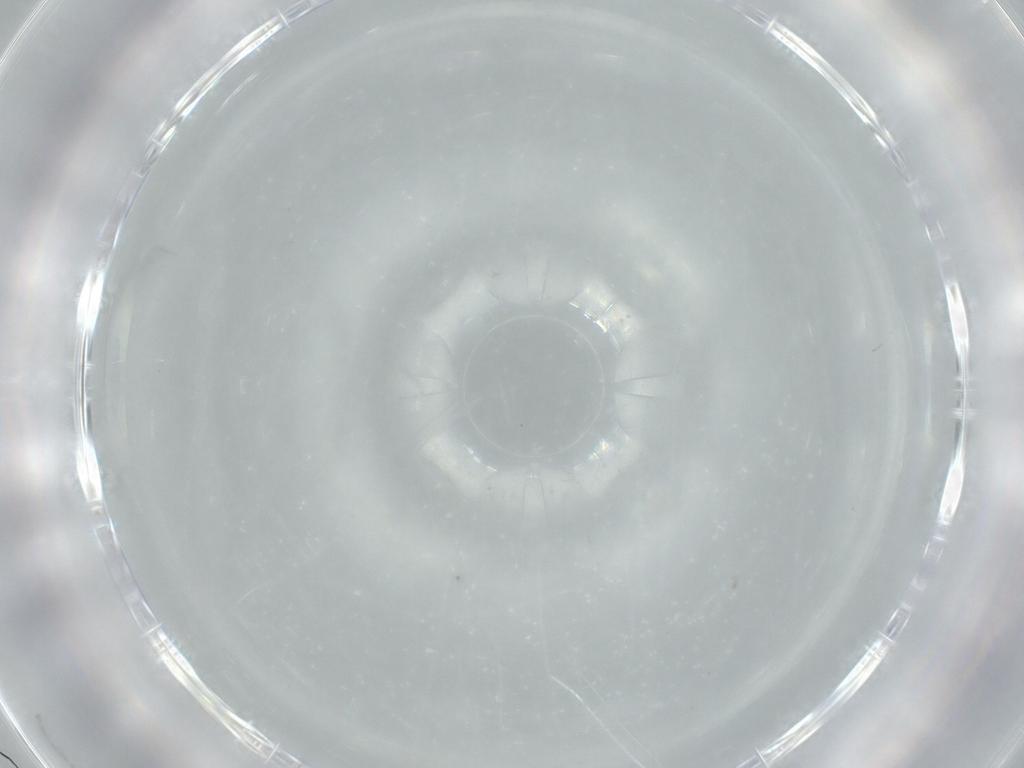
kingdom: Animalia
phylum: Arthropoda
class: Insecta
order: Diptera
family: Cecidomyiidae
